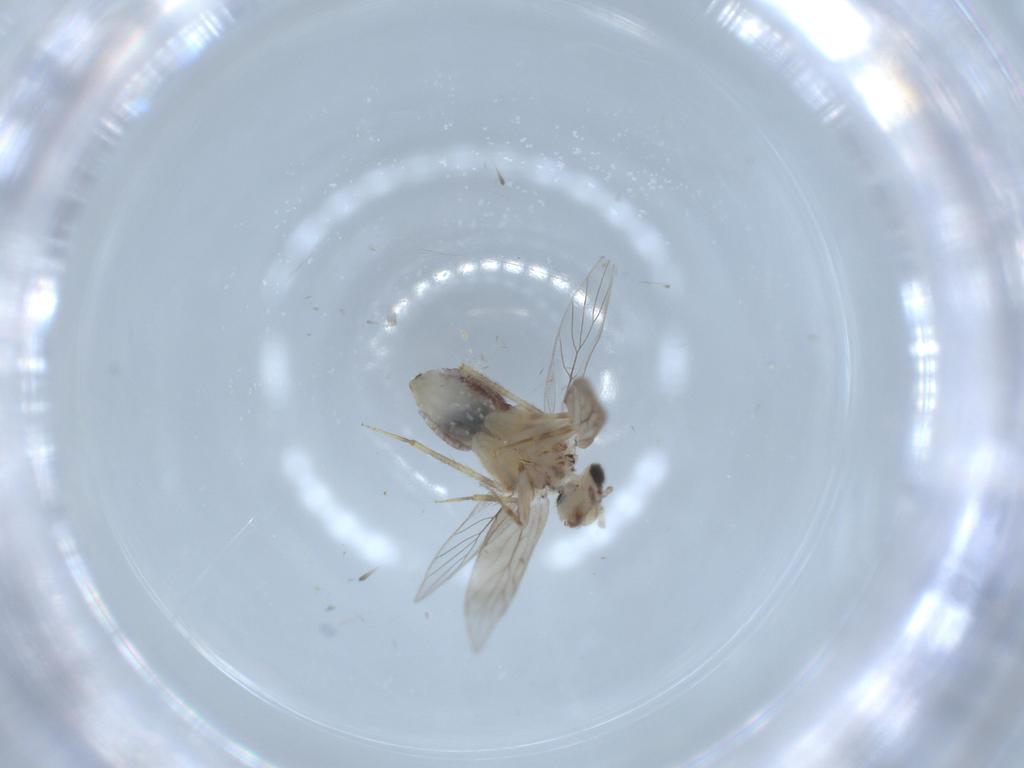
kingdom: Animalia
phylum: Arthropoda
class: Insecta
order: Psocodea
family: Lepidopsocidae
